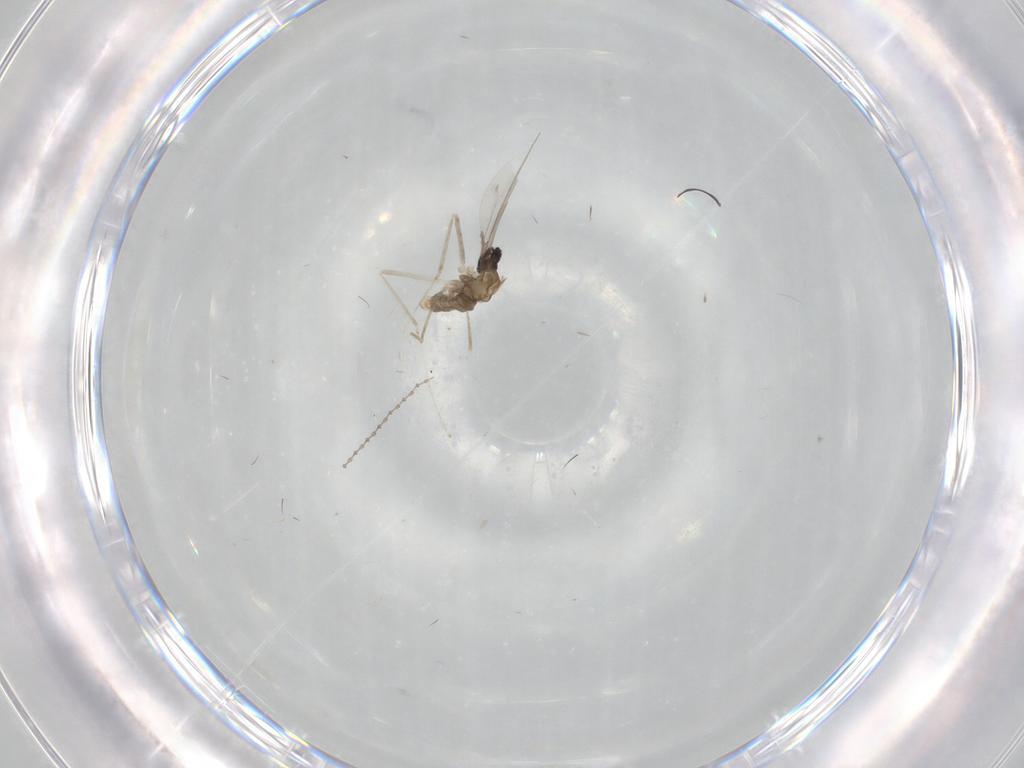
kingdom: Animalia
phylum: Arthropoda
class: Insecta
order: Diptera
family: Cecidomyiidae
